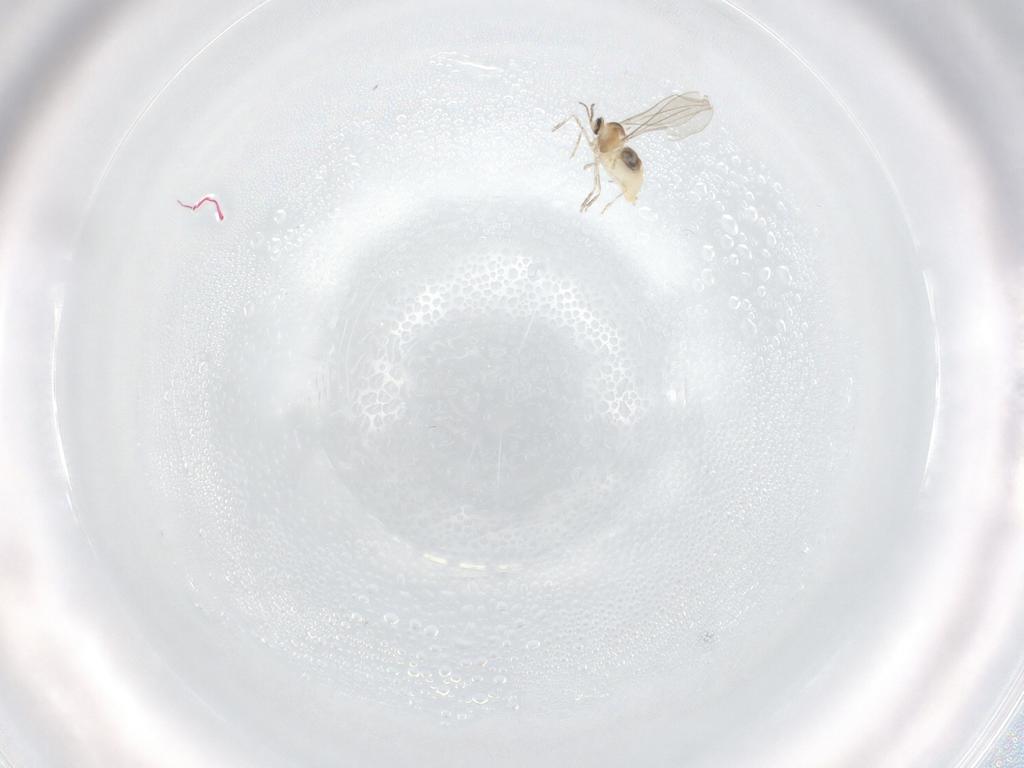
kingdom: Animalia
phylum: Arthropoda
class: Insecta
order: Diptera
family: Cecidomyiidae
